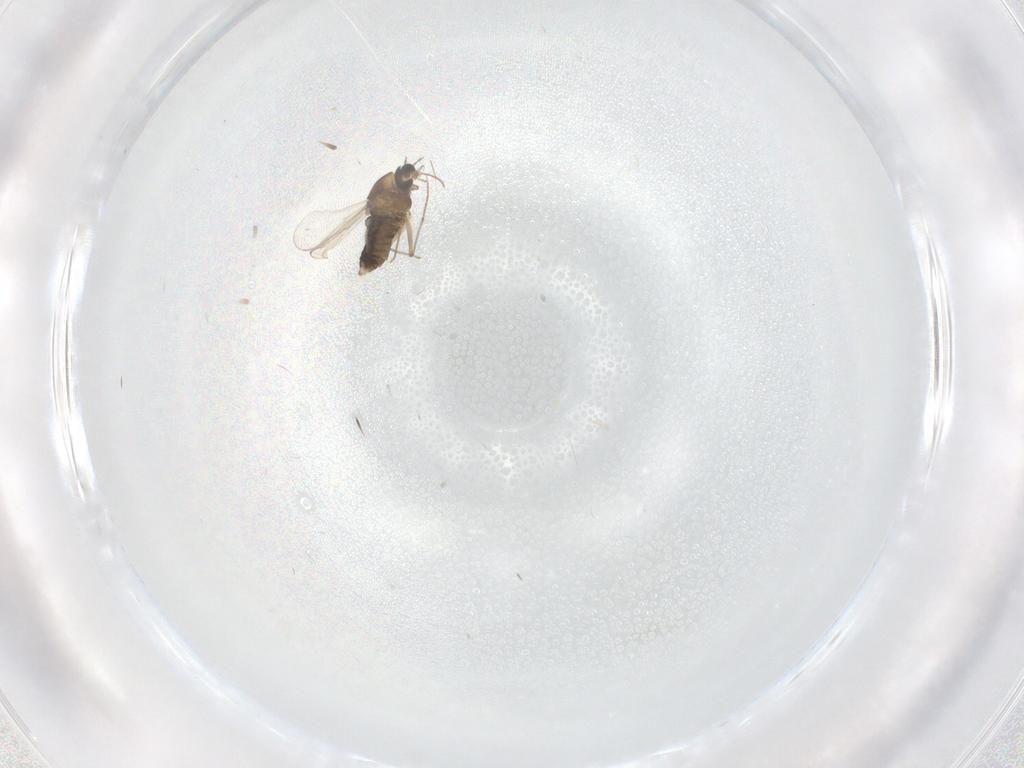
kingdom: Animalia
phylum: Arthropoda
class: Insecta
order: Diptera
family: Chironomidae
